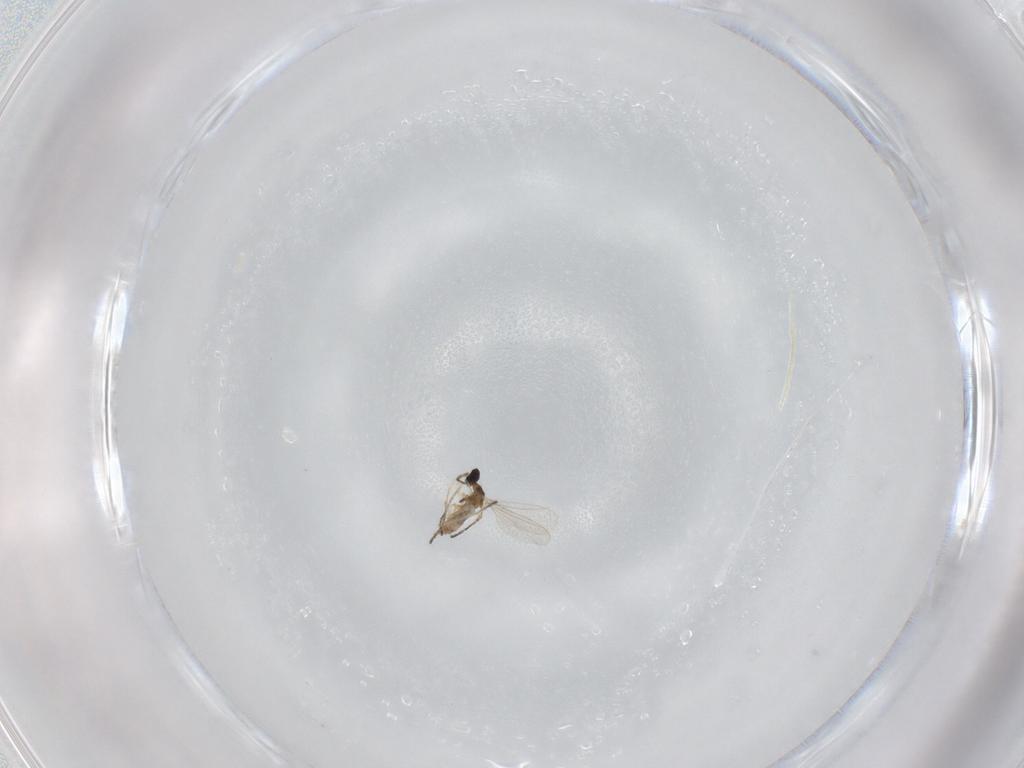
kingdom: Animalia
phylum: Arthropoda
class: Insecta
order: Diptera
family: Cecidomyiidae
